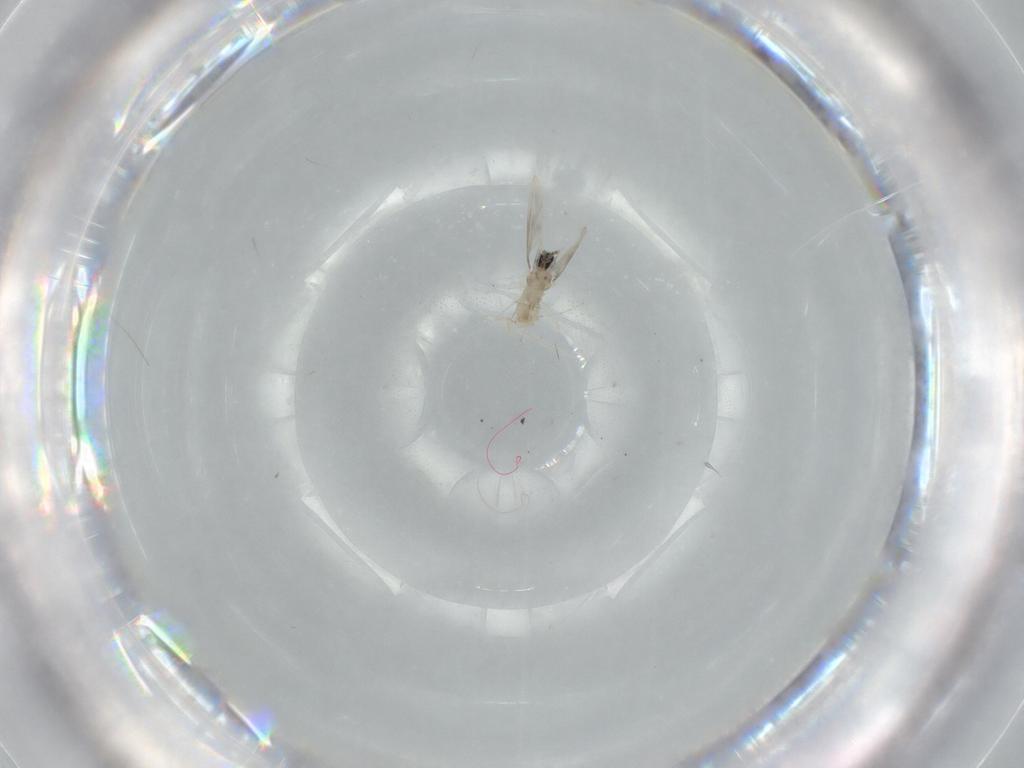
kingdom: Animalia
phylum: Arthropoda
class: Insecta
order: Diptera
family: Cecidomyiidae
